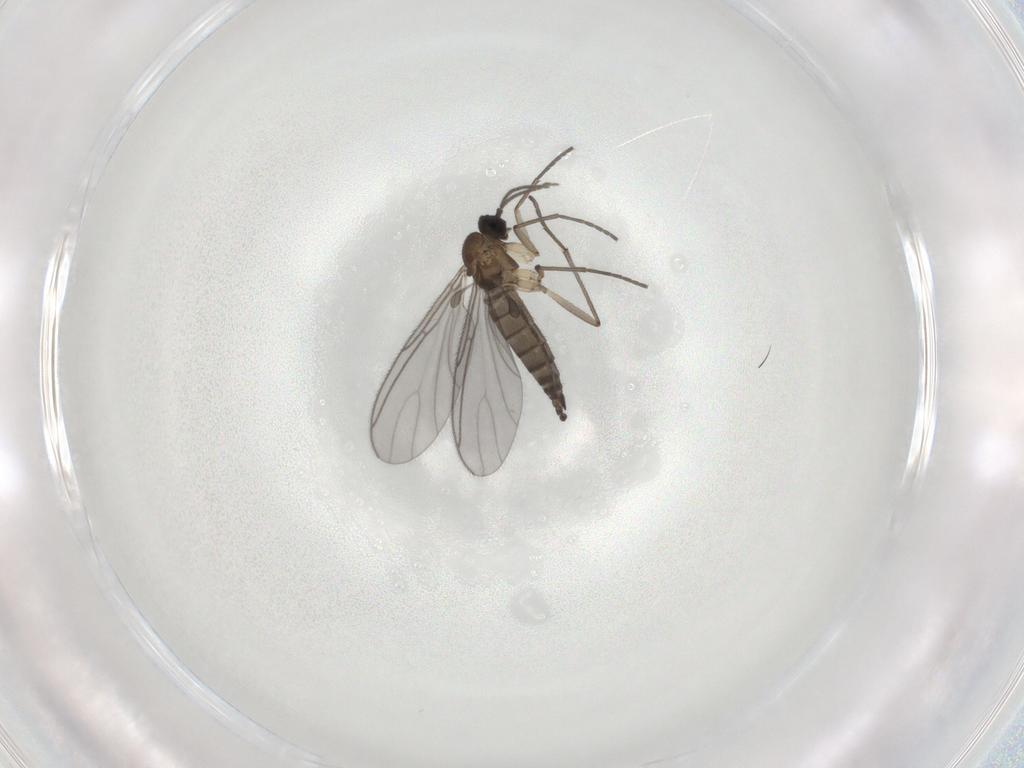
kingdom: Animalia
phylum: Arthropoda
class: Insecta
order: Diptera
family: Sciaridae
